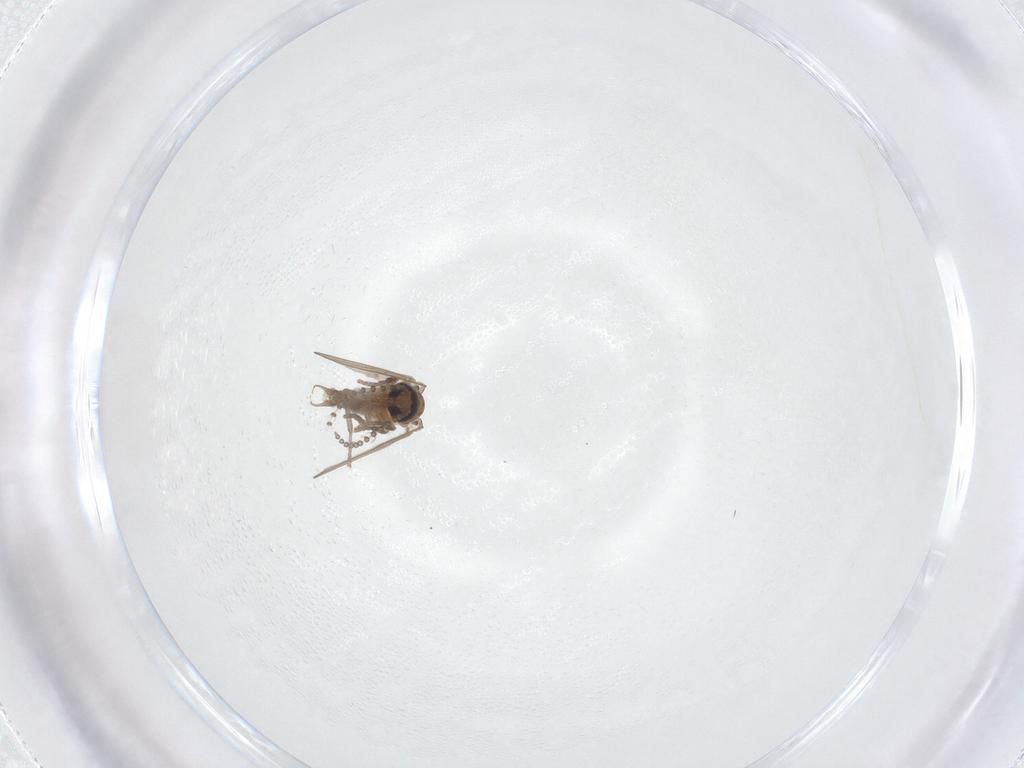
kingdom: Animalia
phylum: Arthropoda
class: Insecta
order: Diptera
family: Psychodidae
